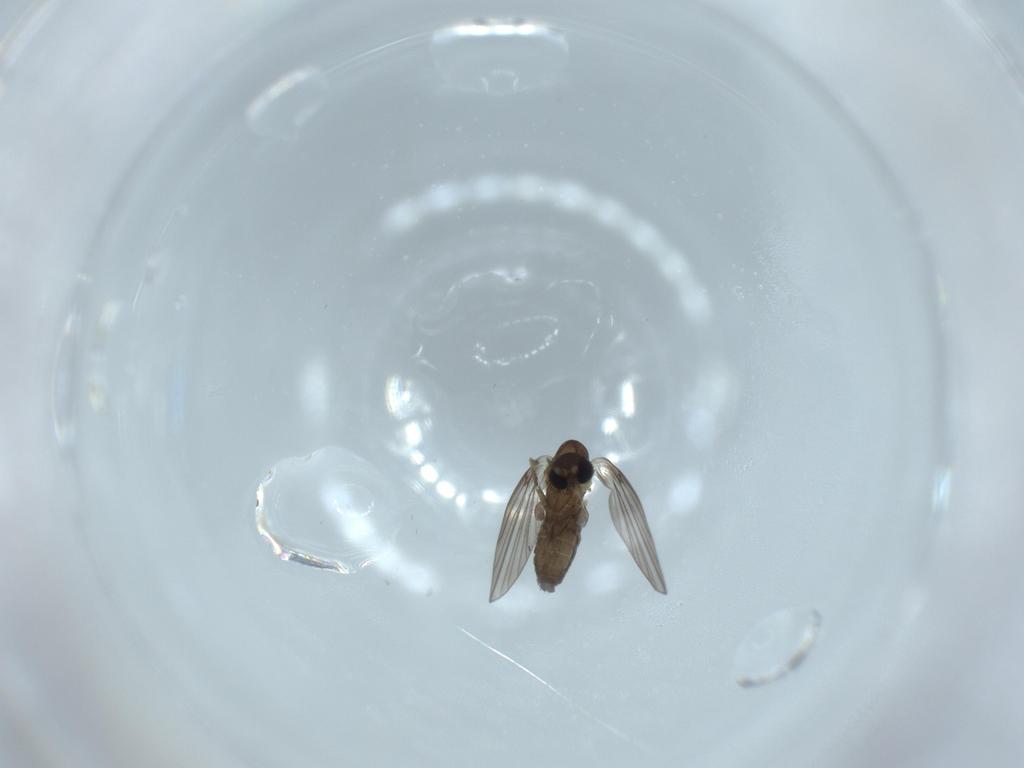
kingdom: Animalia
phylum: Arthropoda
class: Insecta
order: Diptera
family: Psychodidae
